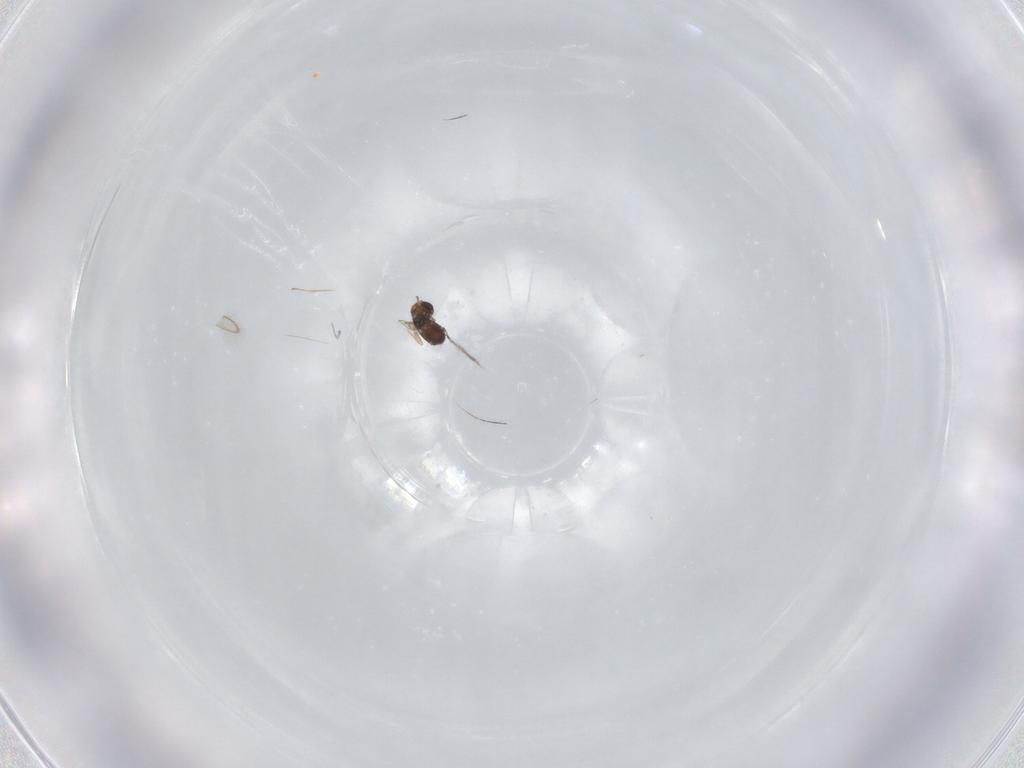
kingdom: Animalia
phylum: Arthropoda
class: Insecta
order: Hymenoptera
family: Mymaridae
